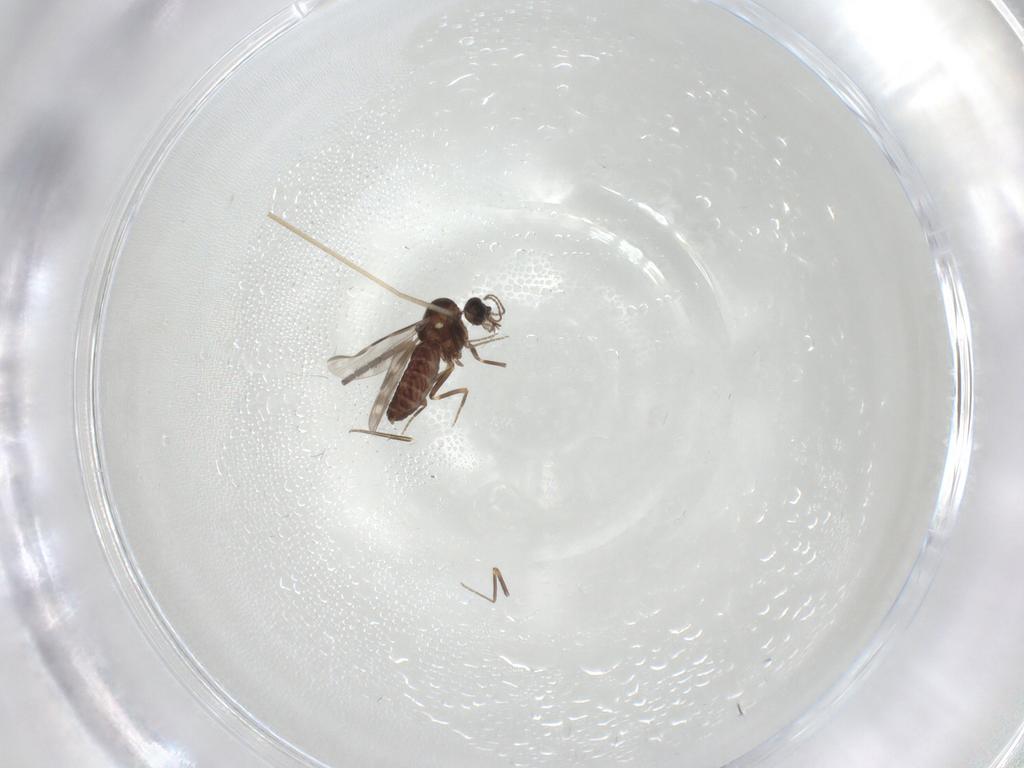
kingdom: Animalia
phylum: Arthropoda
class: Insecta
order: Diptera
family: Limoniidae
